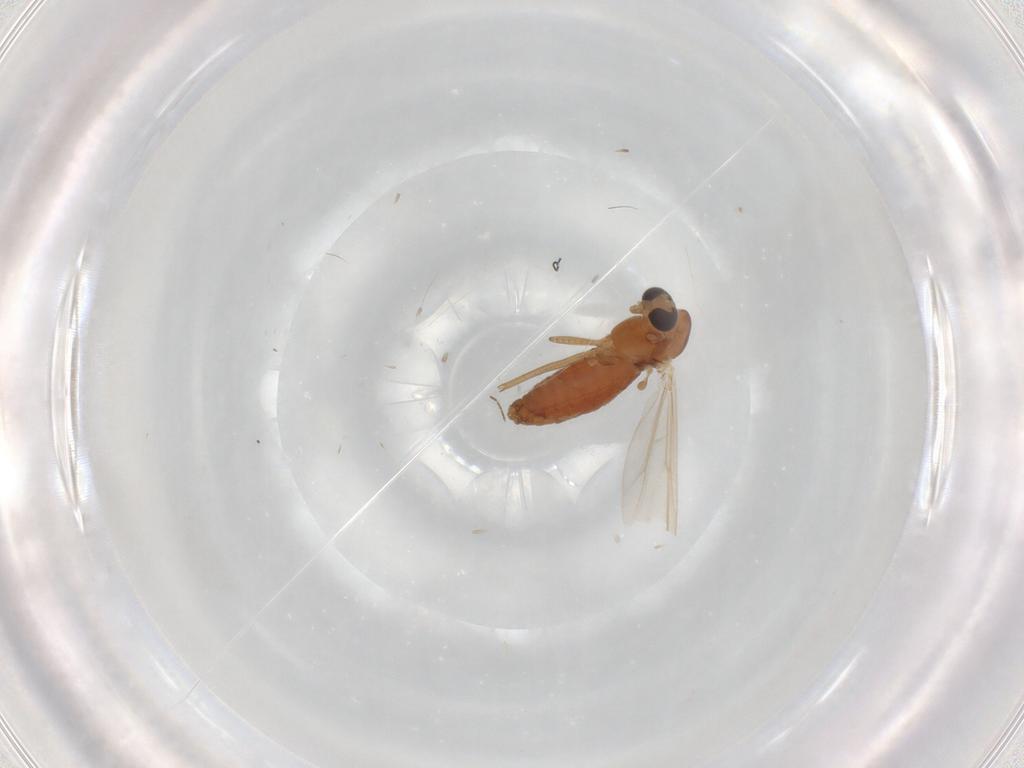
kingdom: Animalia
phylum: Arthropoda
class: Insecta
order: Diptera
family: Chironomidae
